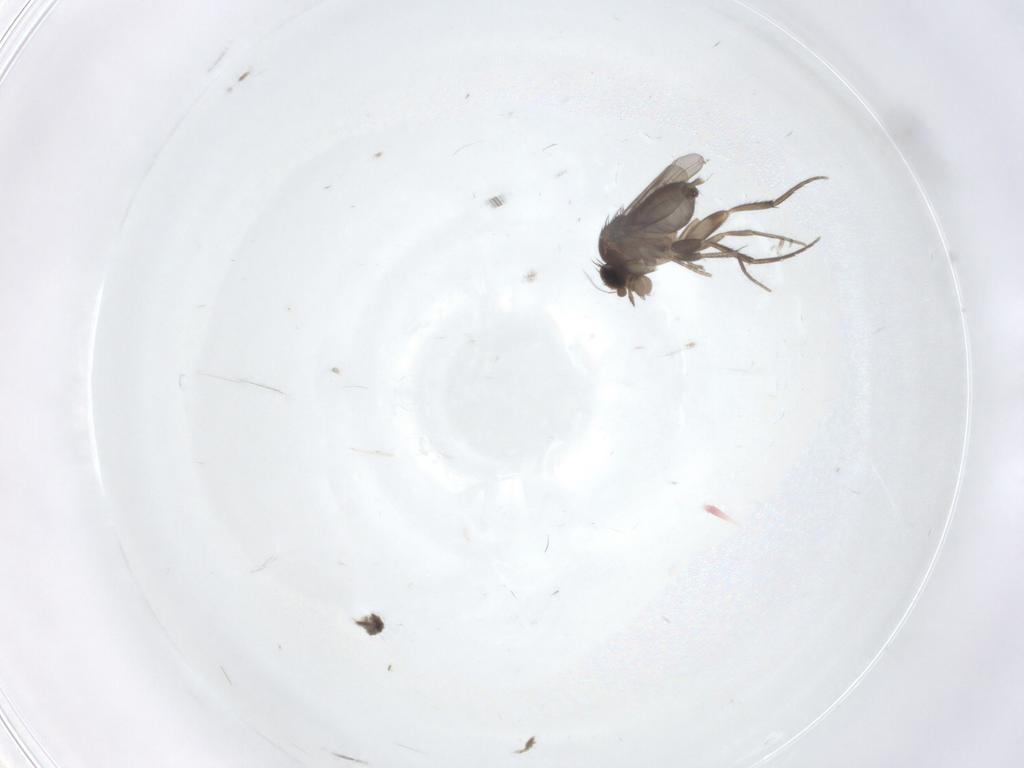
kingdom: Animalia
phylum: Arthropoda
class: Insecta
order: Diptera
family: Phoridae
